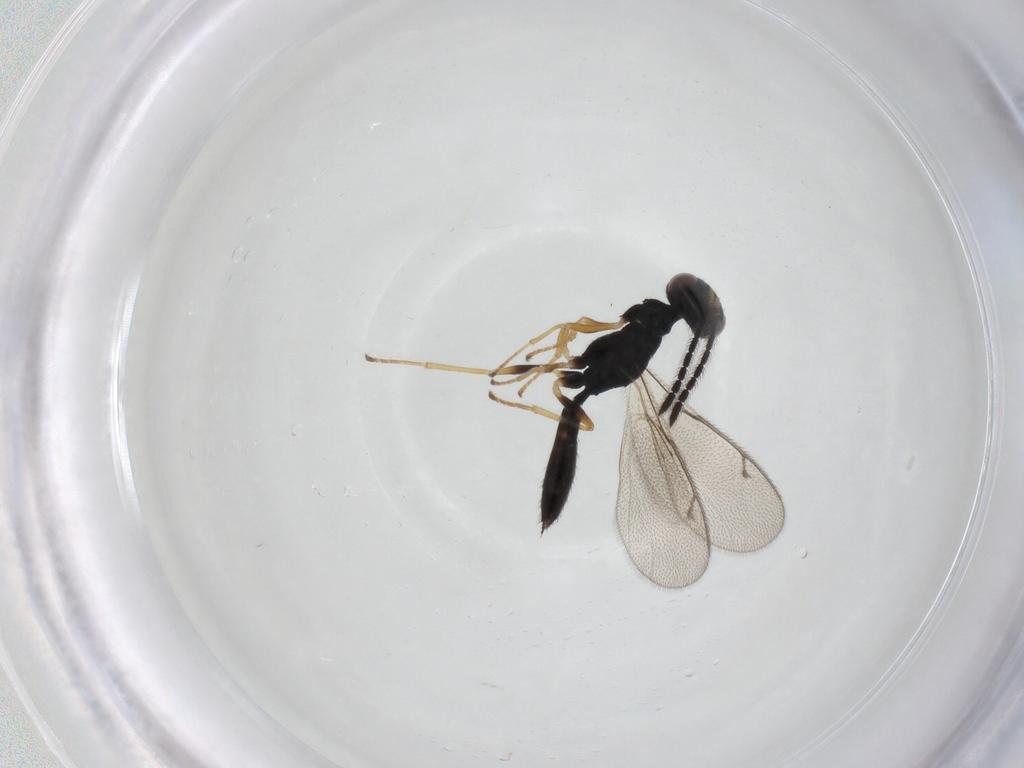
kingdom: Animalia
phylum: Arthropoda
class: Insecta
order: Hymenoptera
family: Pteromalidae
